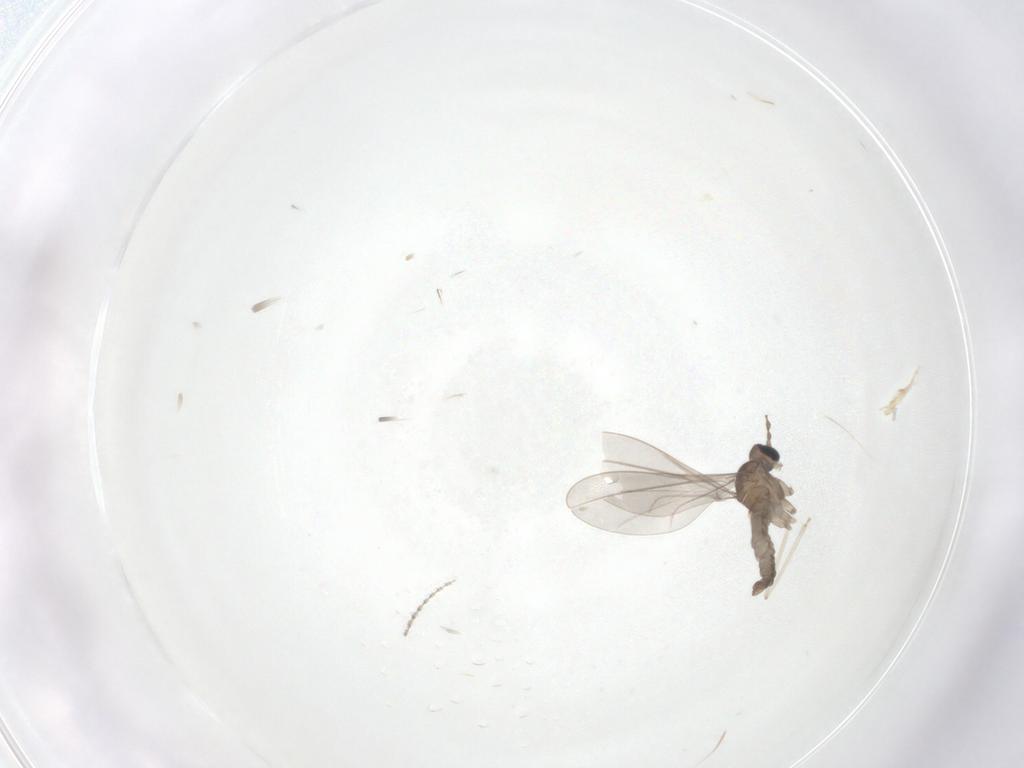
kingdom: Animalia
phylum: Arthropoda
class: Insecta
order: Diptera
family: Sciaridae
